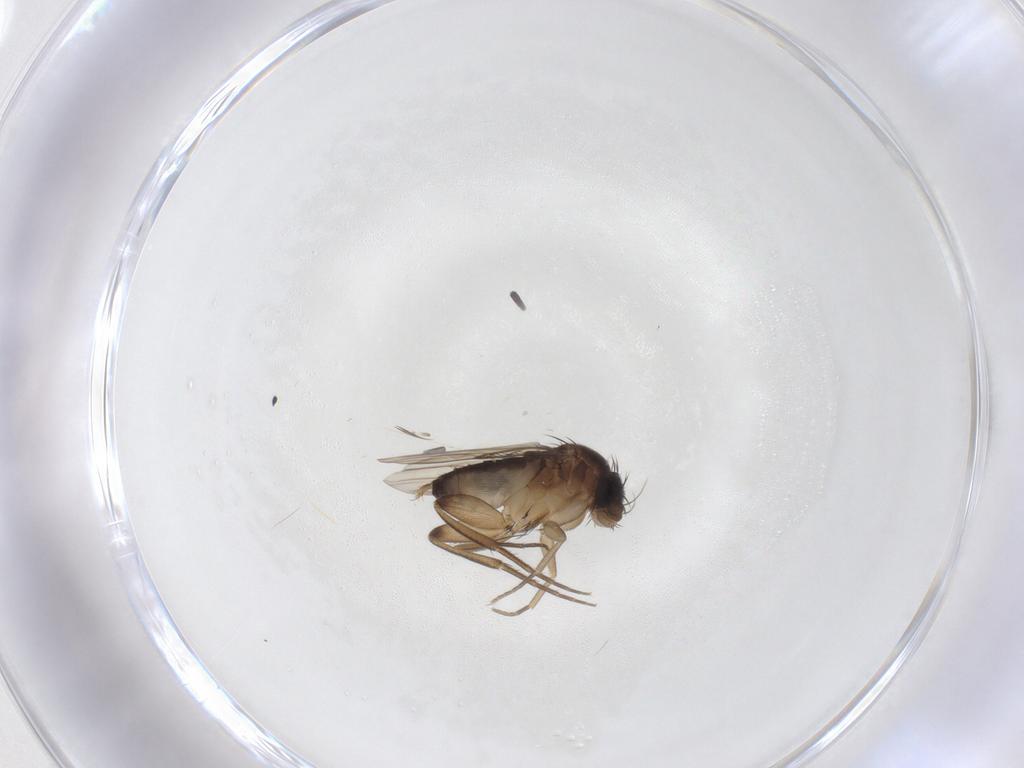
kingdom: Animalia
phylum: Arthropoda
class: Insecta
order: Diptera
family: Phoridae
